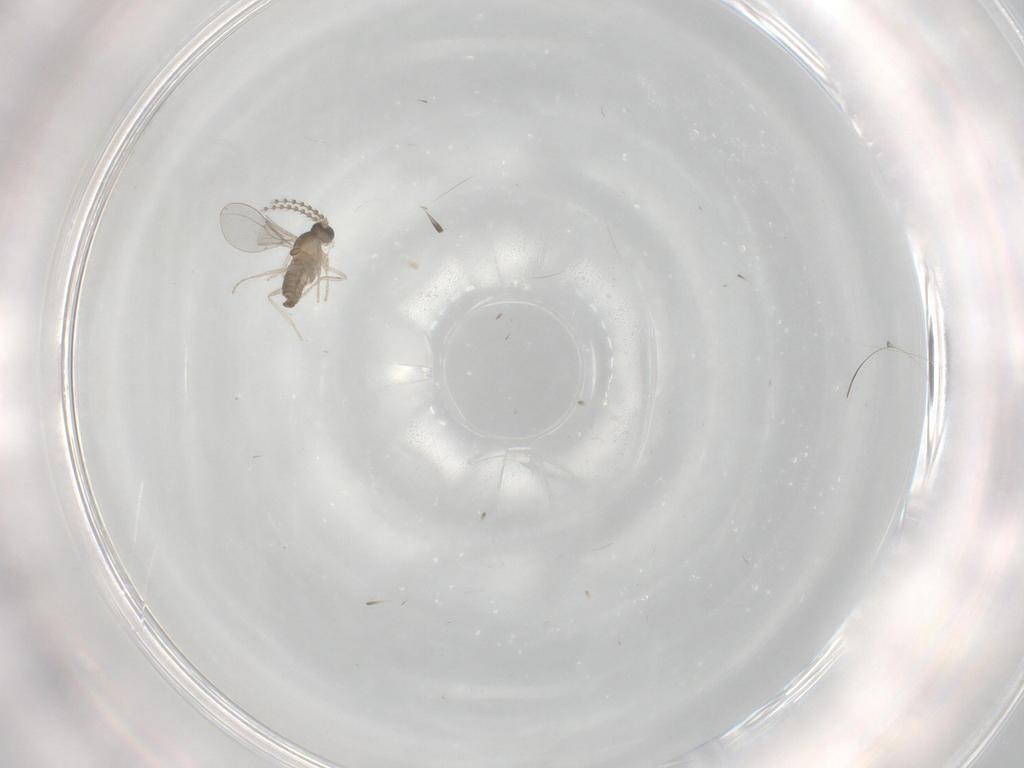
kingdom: Animalia
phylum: Arthropoda
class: Insecta
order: Diptera
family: Cecidomyiidae
